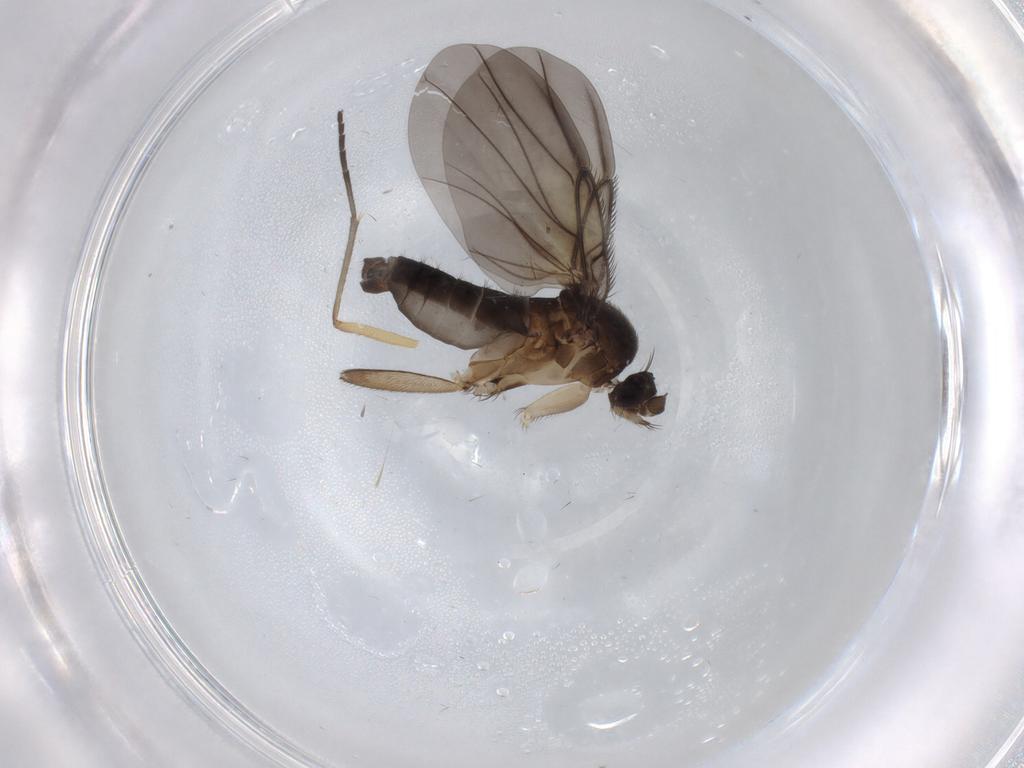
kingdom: Animalia
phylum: Arthropoda
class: Insecta
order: Diptera
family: Phoridae
